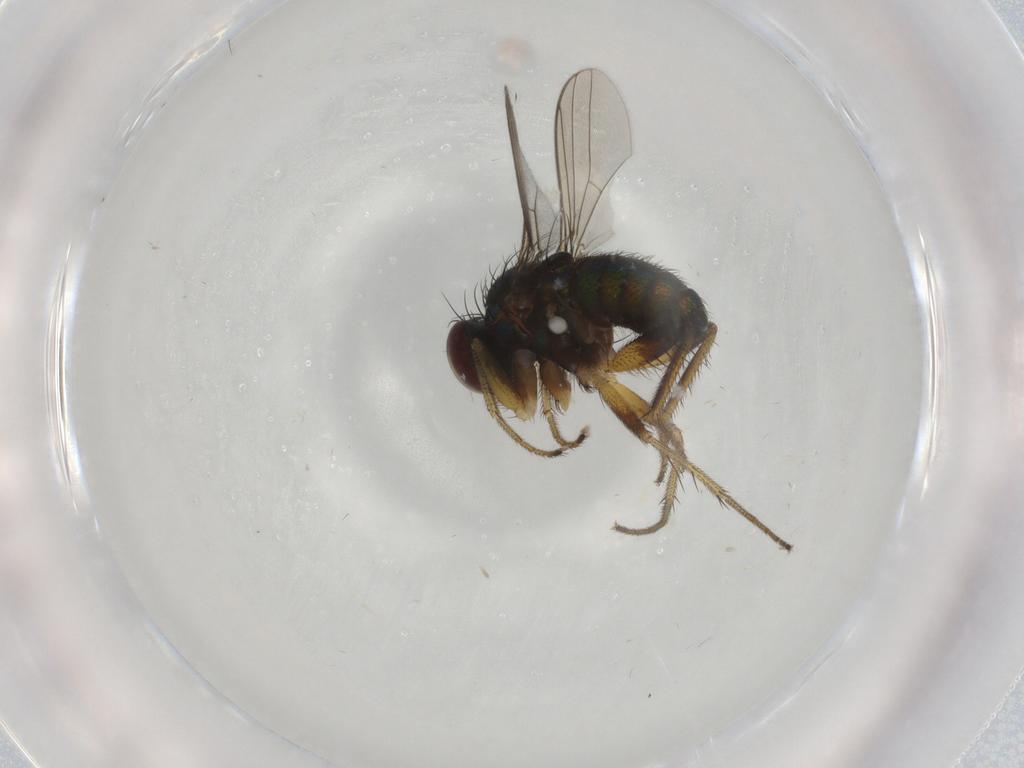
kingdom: Animalia
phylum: Arthropoda
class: Insecta
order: Diptera
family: Dolichopodidae
